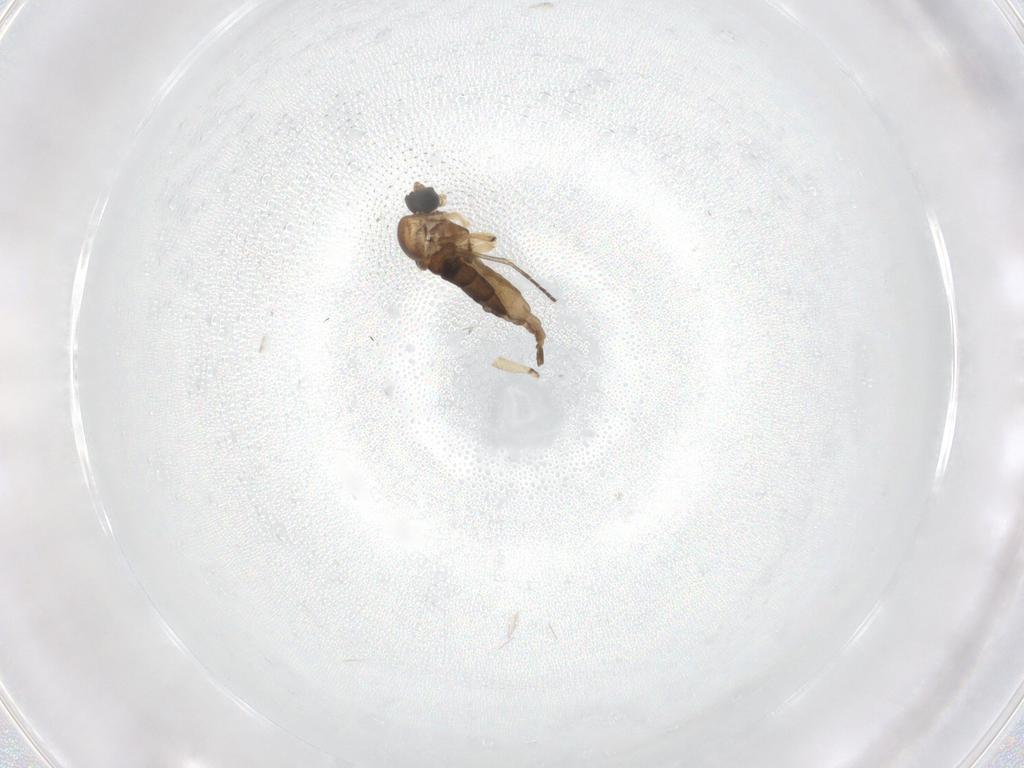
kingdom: Animalia
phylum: Arthropoda
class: Insecta
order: Diptera
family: Sciaridae
